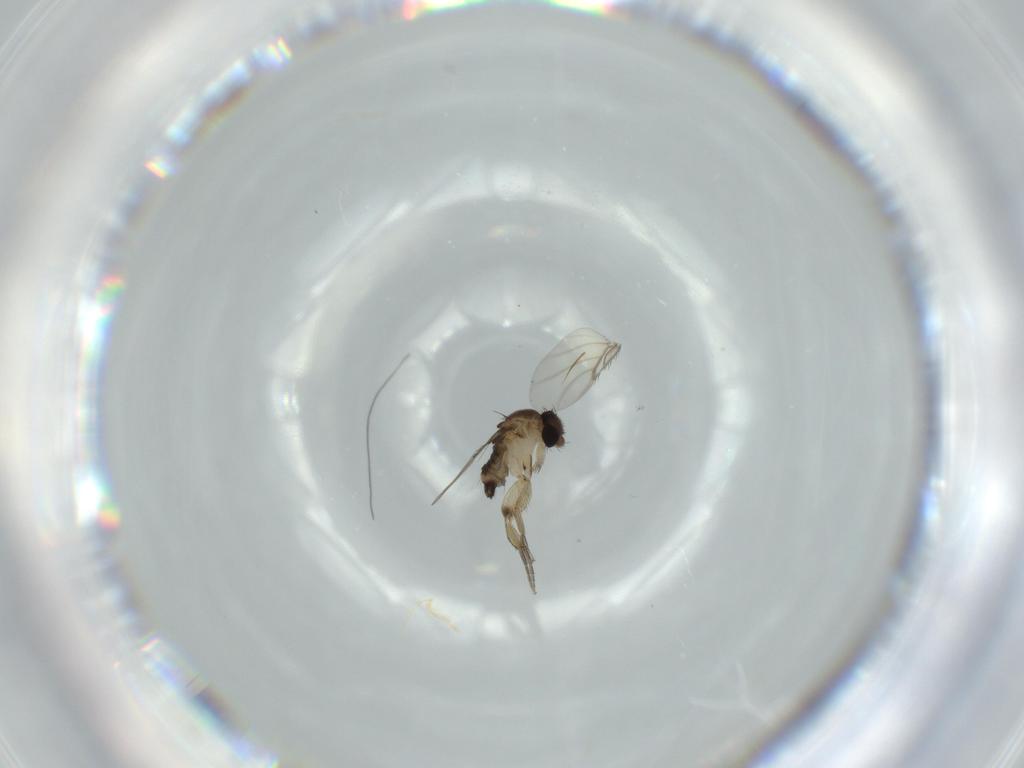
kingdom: Animalia
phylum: Arthropoda
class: Insecta
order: Diptera
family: Phoridae
